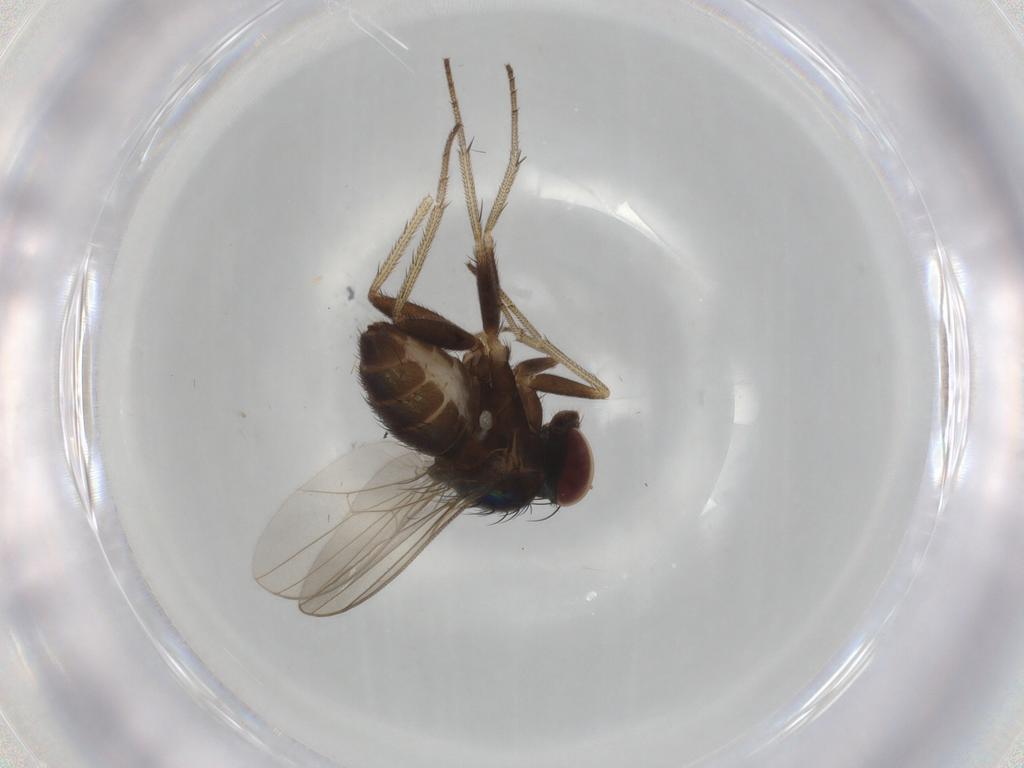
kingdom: Animalia
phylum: Arthropoda
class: Insecta
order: Diptera
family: Dolichopodidae
